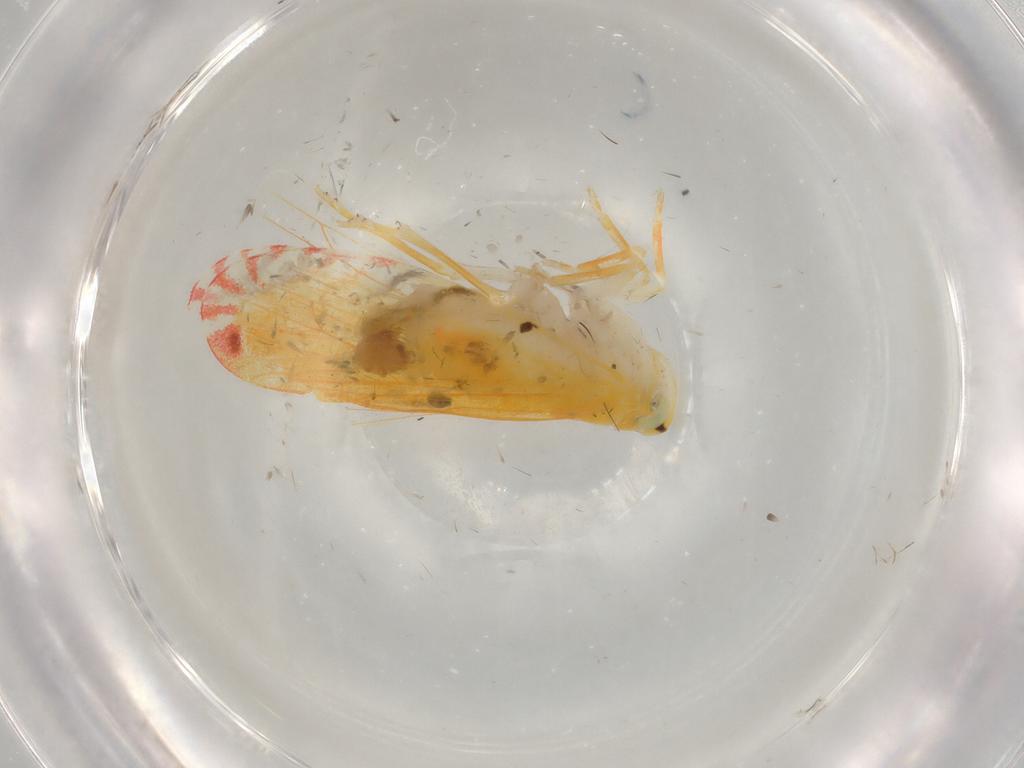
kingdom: Animalia
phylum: Arthropoda
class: Insecta
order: Hemiptera
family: Derbidae
